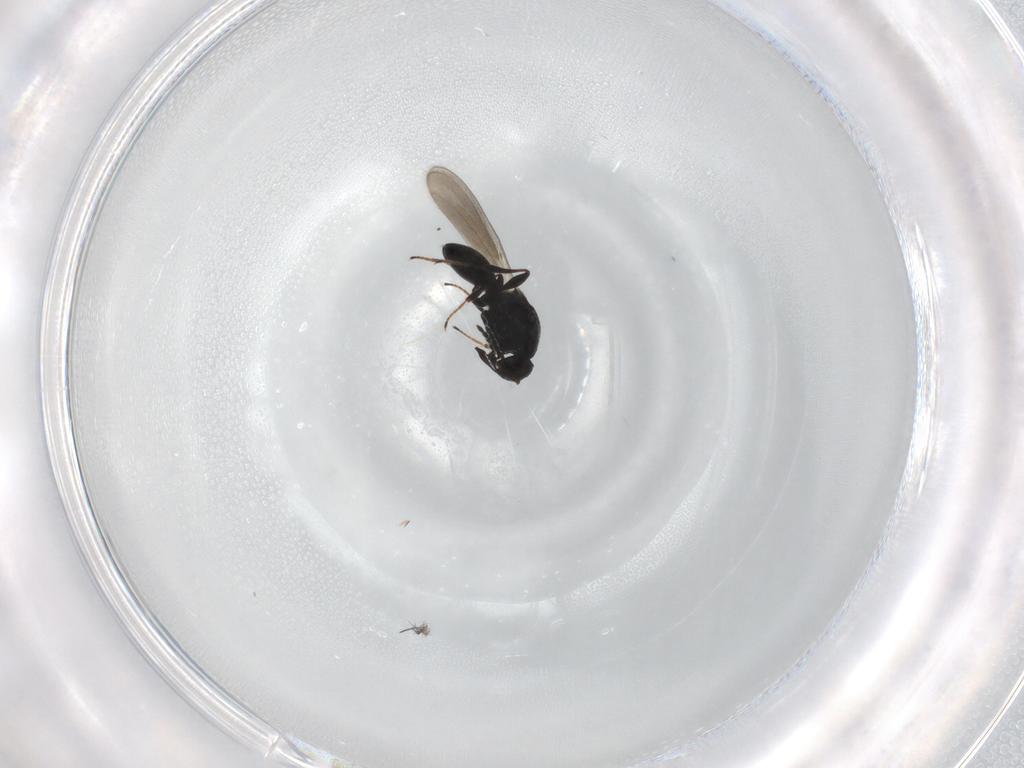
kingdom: Animalia
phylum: Arthropoda
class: Insecta
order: Hymenoptera
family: Platygastridae
